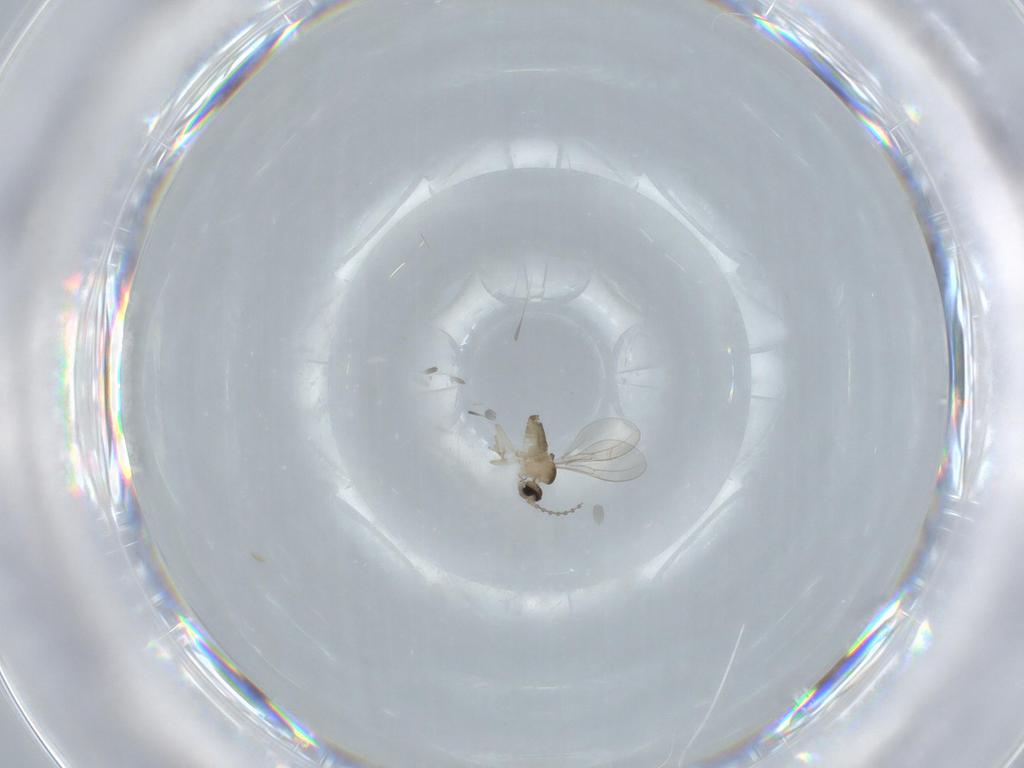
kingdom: Animalia
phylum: Arthropoda
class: Insecta
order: Diptera
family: Cecidomyiidae
